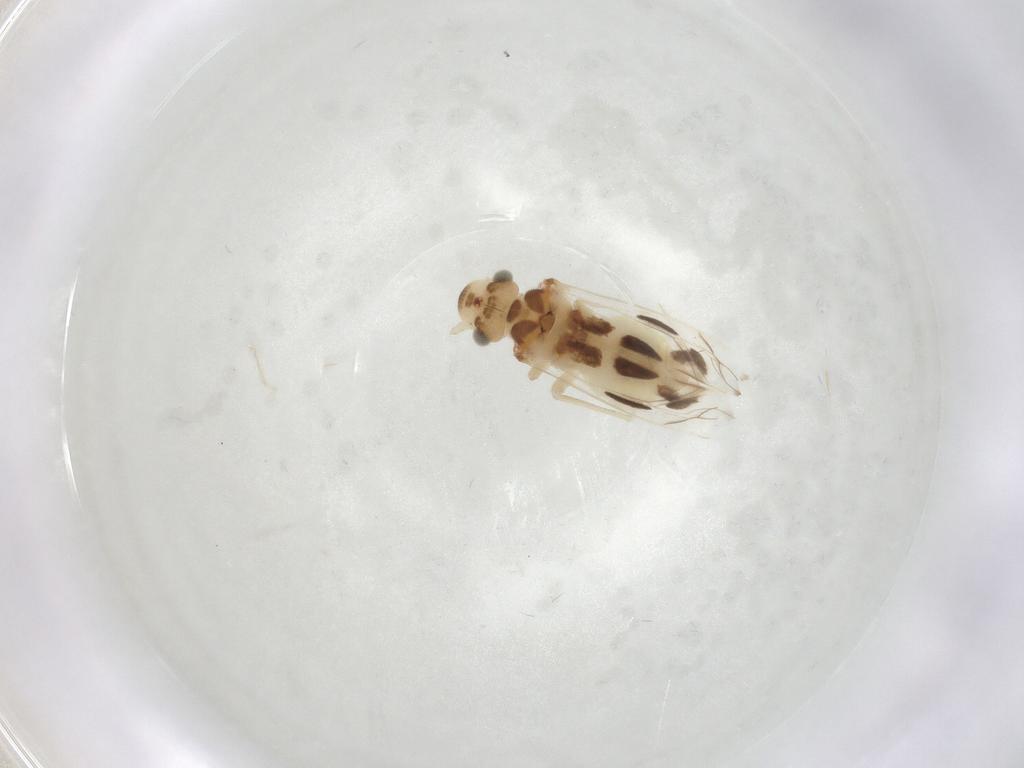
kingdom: Animalia
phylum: Arthropoda
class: Insecta
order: Psocodea
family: Stenopsocidae
